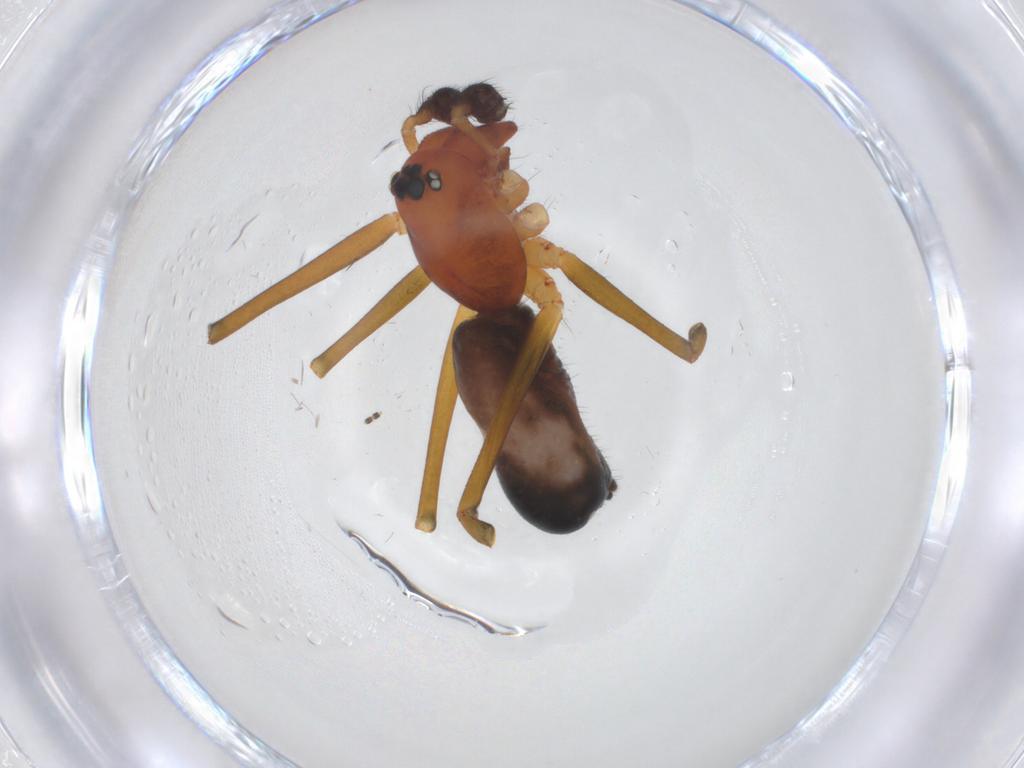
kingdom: Animalia
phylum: Arthropoda
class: Arachnida
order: Araneae
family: Linyphiidae
